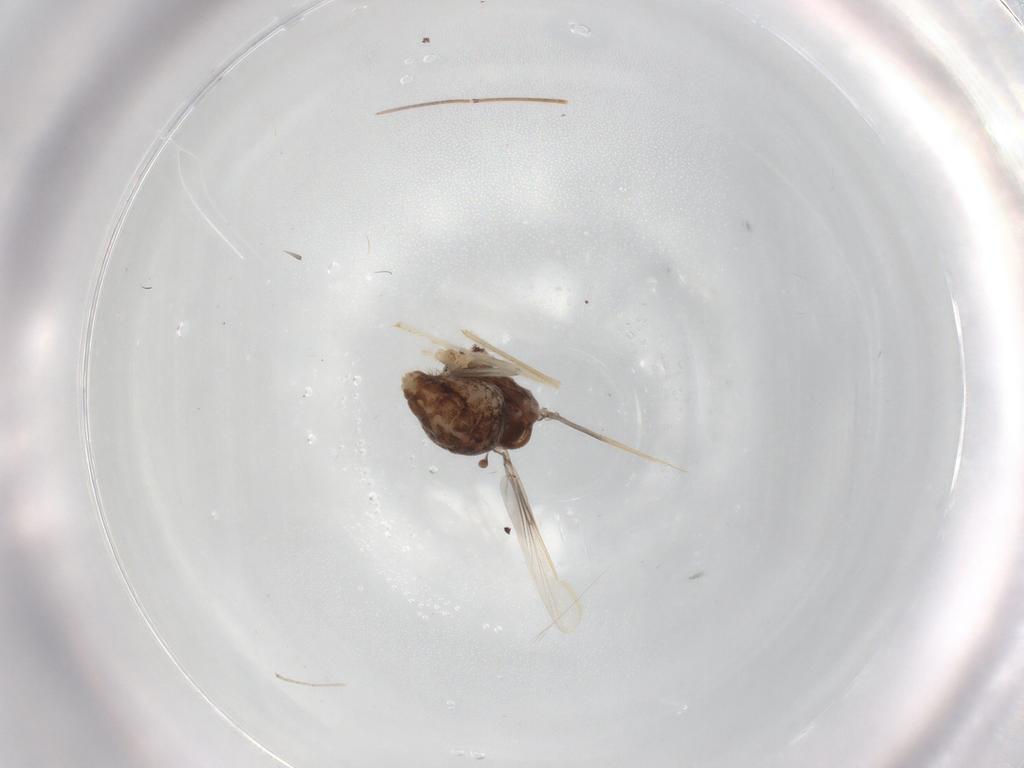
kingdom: Animalia
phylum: Arthropoda
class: Insecta
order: Diptera
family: Chironomidae
